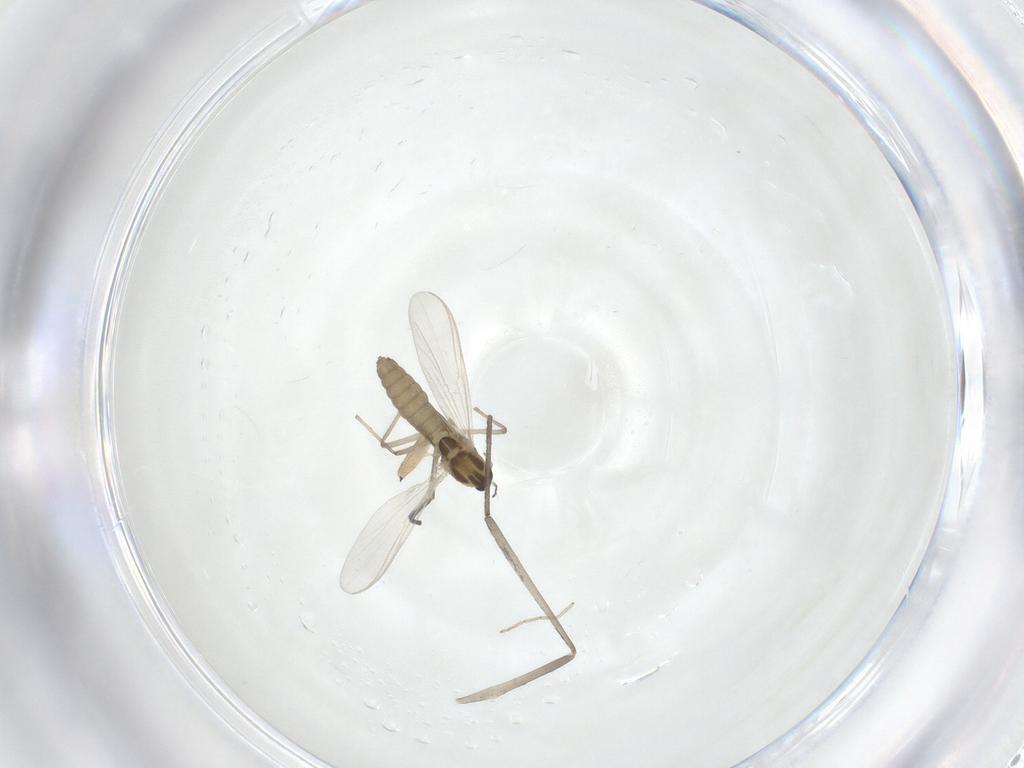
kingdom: Animalia
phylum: Arthropoda
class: Insecta
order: Diptera
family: Chironomidae
